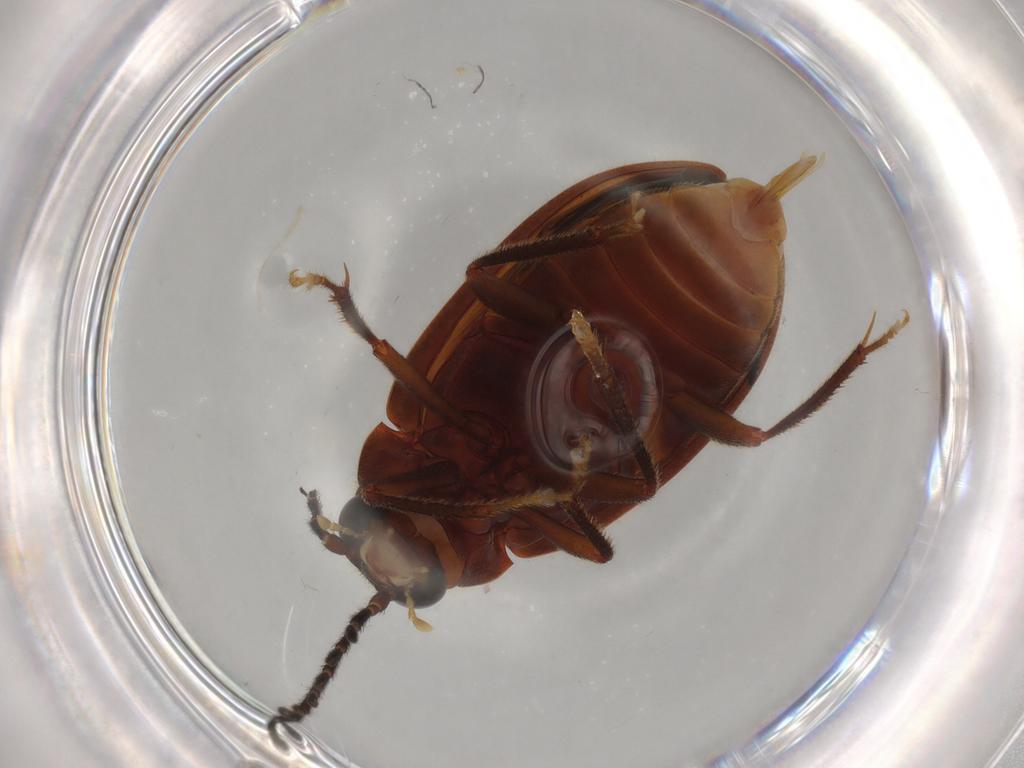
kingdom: Animalia
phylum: Arthropoda
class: Insecta
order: Coleoptera
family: Ptilodactylidae
